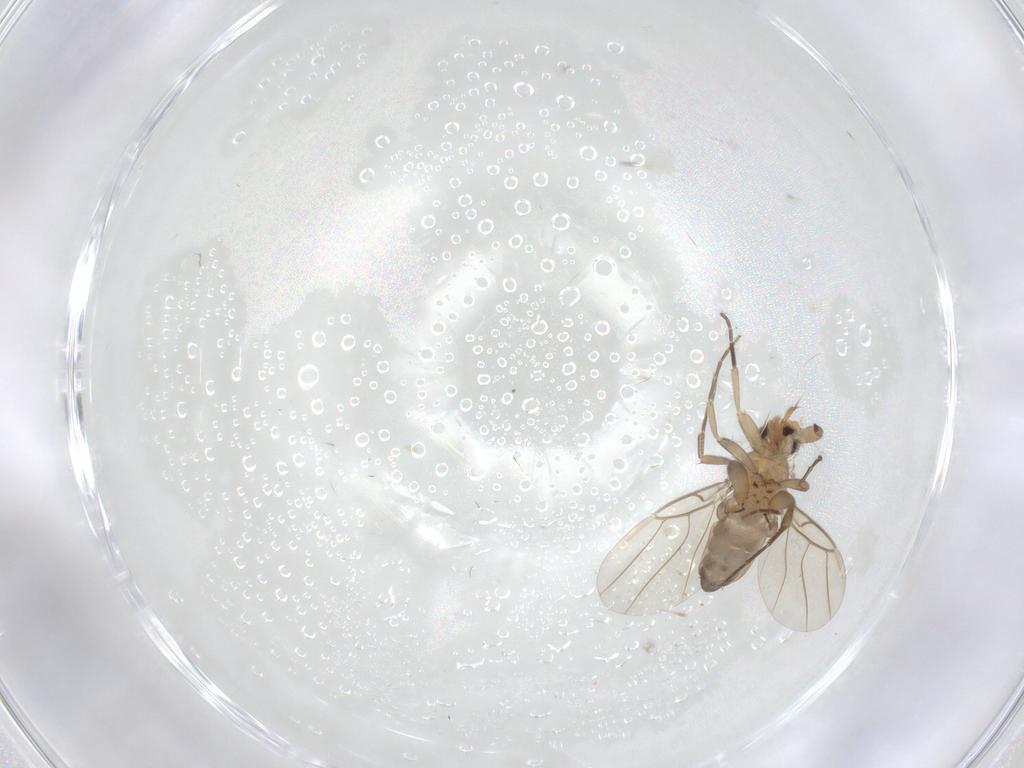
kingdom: Animalia
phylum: Arthropoda
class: Insecta
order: Diptera
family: Phoridae
